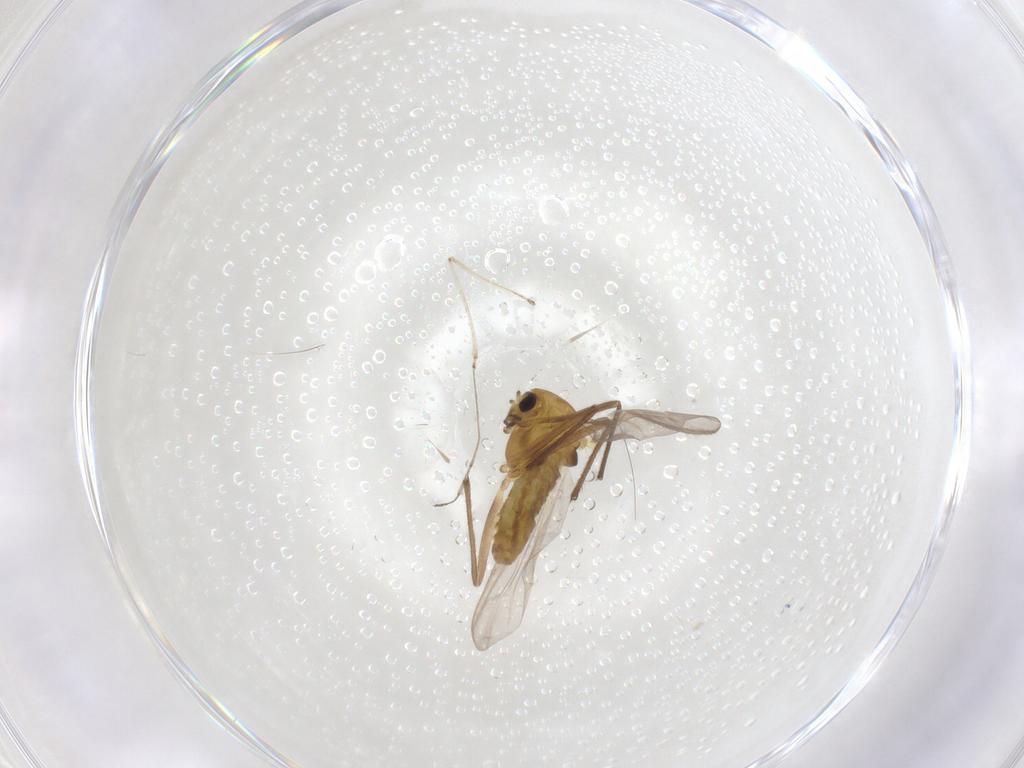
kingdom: Animalia
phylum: Arthropoda
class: Insecta
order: Diptera
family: Chironomidae
